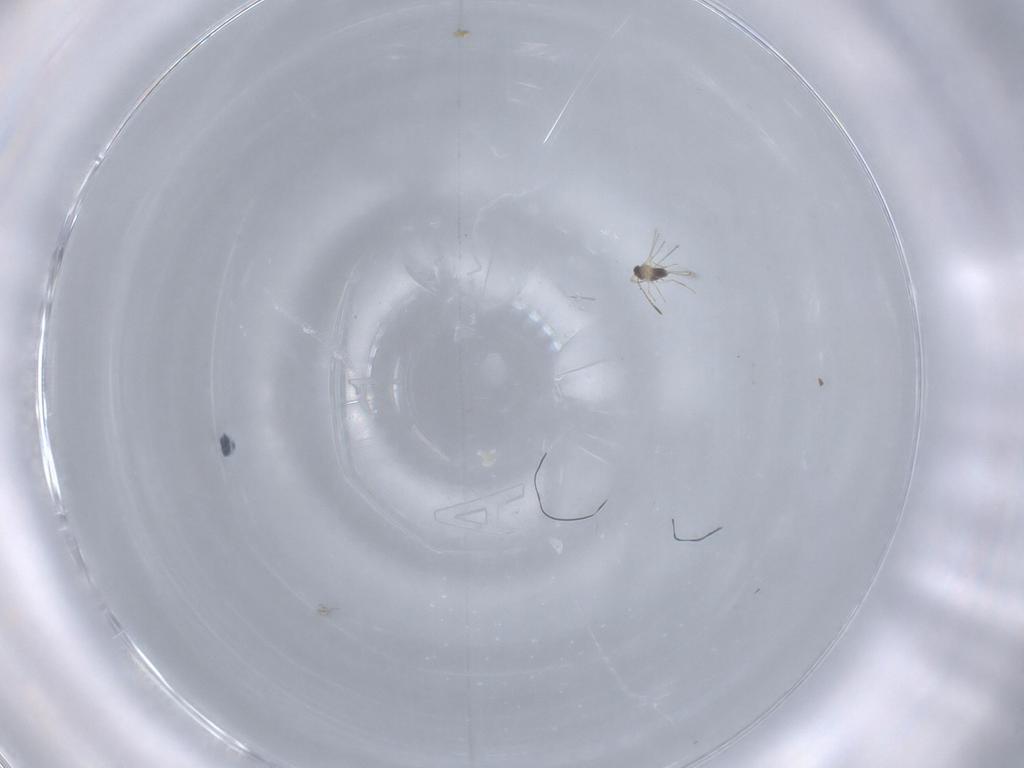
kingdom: Animalia
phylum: Arthropoda
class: Insecta
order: Hymenoptera
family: Mymaridae
